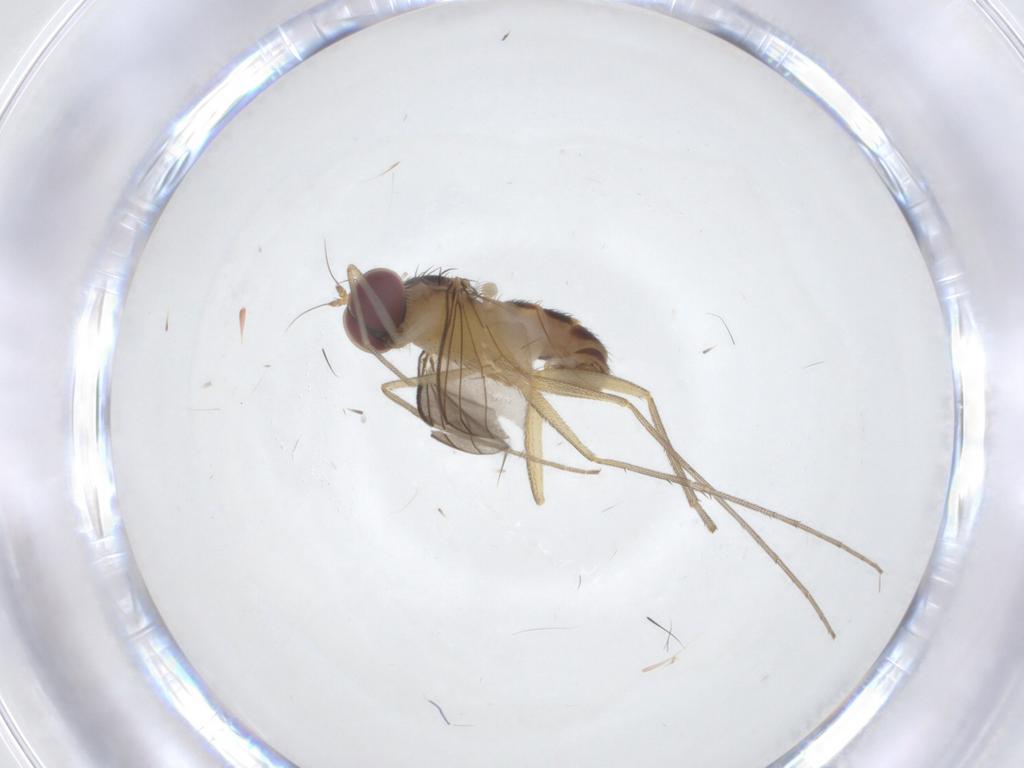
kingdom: Animalia
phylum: Arthropoda
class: Insecta
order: Diptera
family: Dolichopodidae
